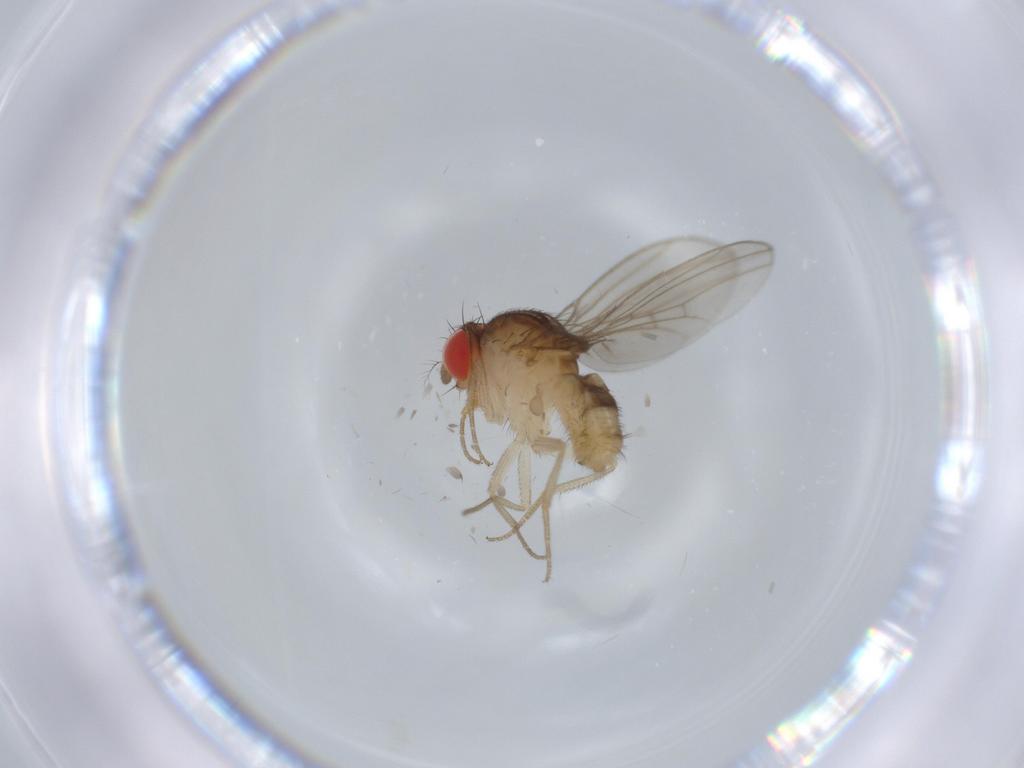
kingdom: Animalia
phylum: Arthropoda
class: Insecta
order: Diptera
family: Drosophilidae
